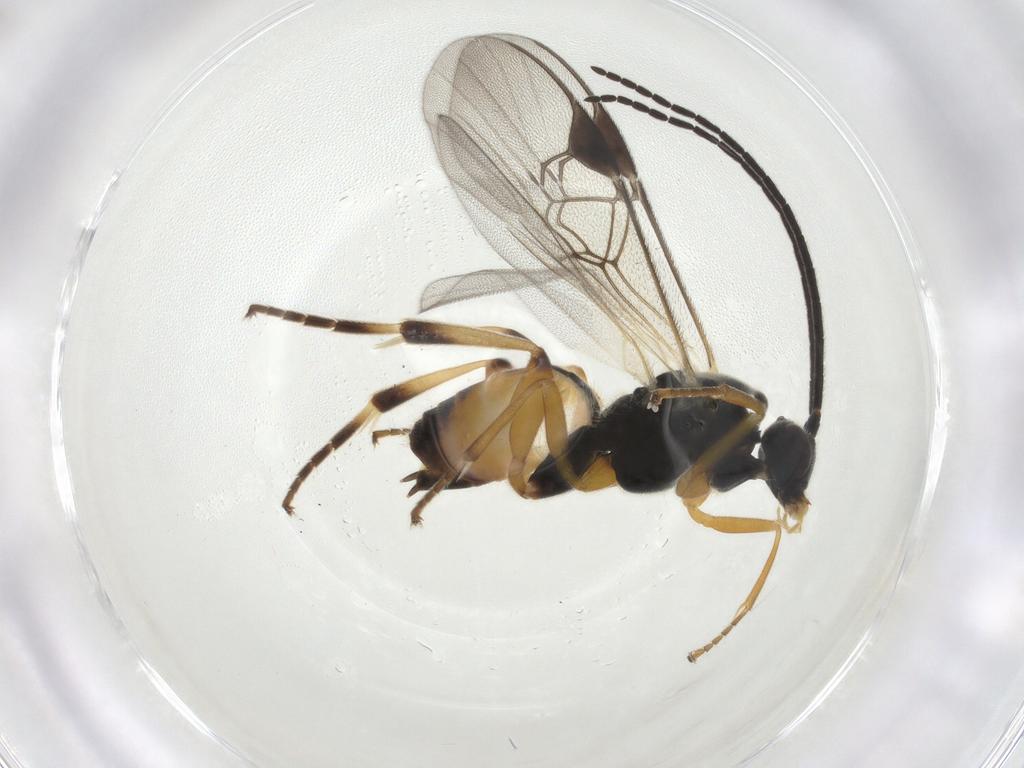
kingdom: Animalia
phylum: Arthropoda
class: Insecta
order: Hymenoptera
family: Braconidae
